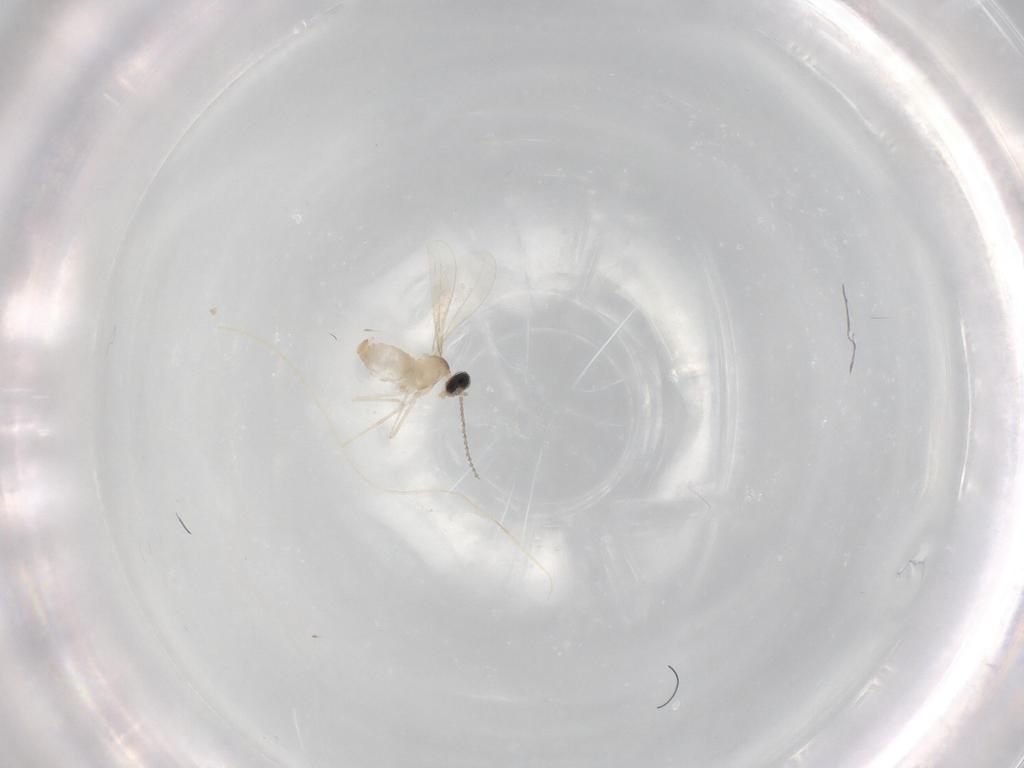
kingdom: Animalia
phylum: Arthropoda
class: Insecta
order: Diptera
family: Cecidomyiidae
